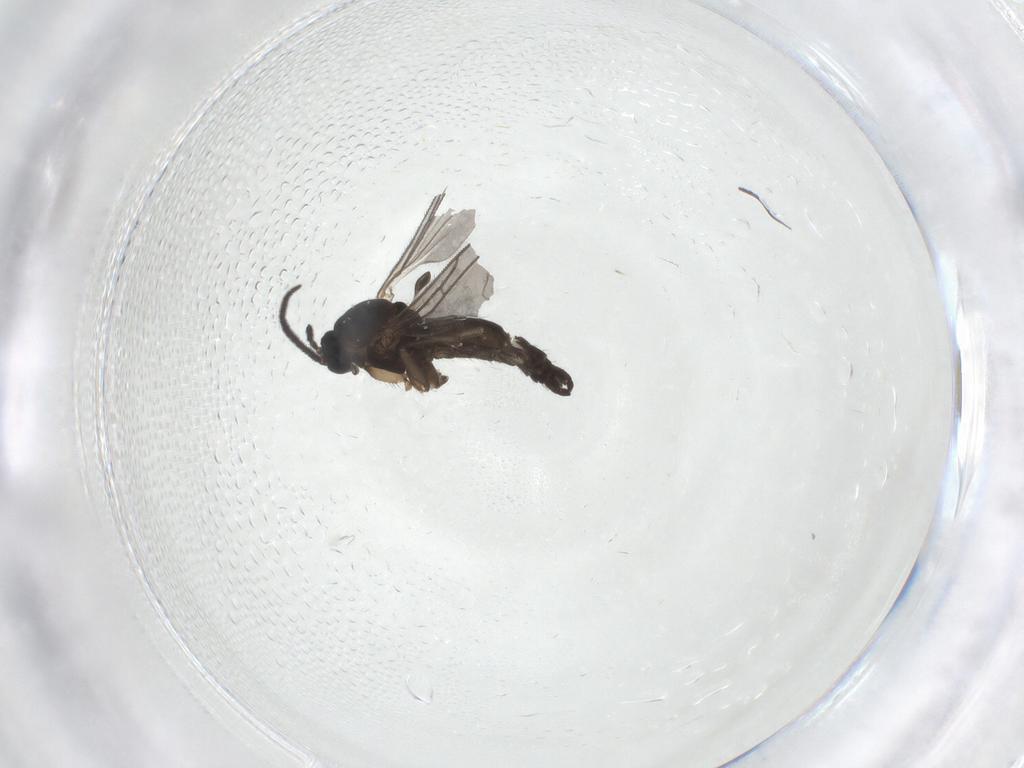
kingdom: Animalia
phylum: Arthropoda
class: Insecta
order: Diptera
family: Sciaridae
